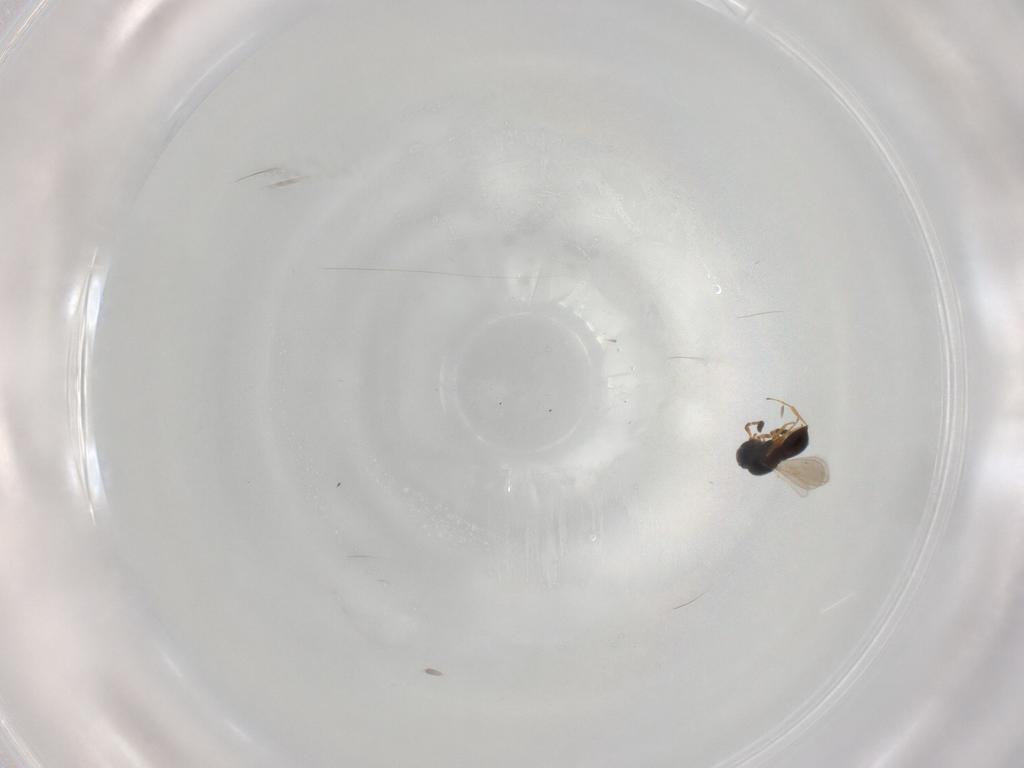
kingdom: Animalia
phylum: Arthropoda
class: Insecta
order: Hymenoptera
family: Scelionidae
